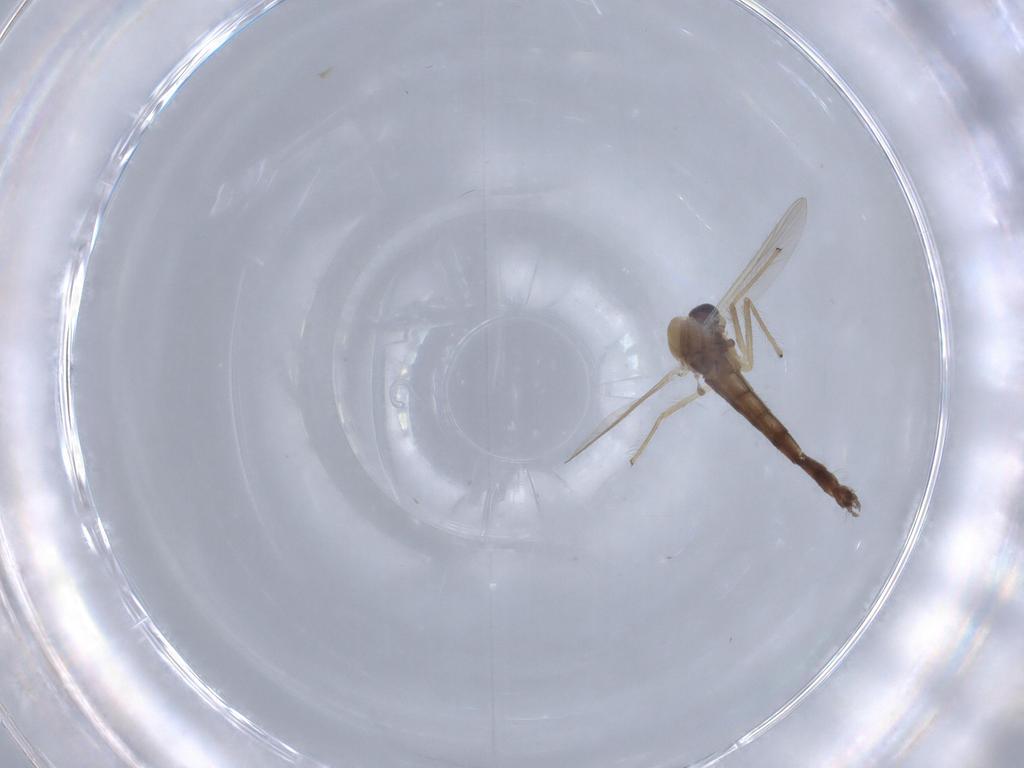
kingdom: Animalia
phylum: Arthropoda
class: Insecta
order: Diptera
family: Chironomidae
